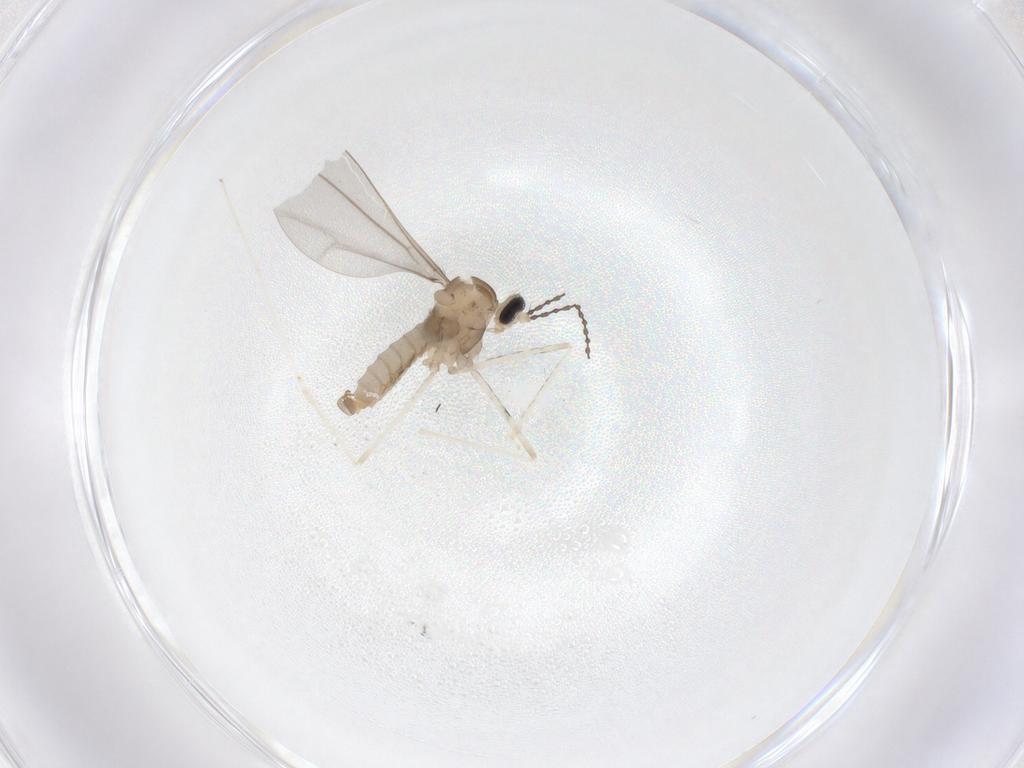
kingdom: Animalia
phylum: Arthropoda
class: Insecta
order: Diptera
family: Cecidomyiidae
